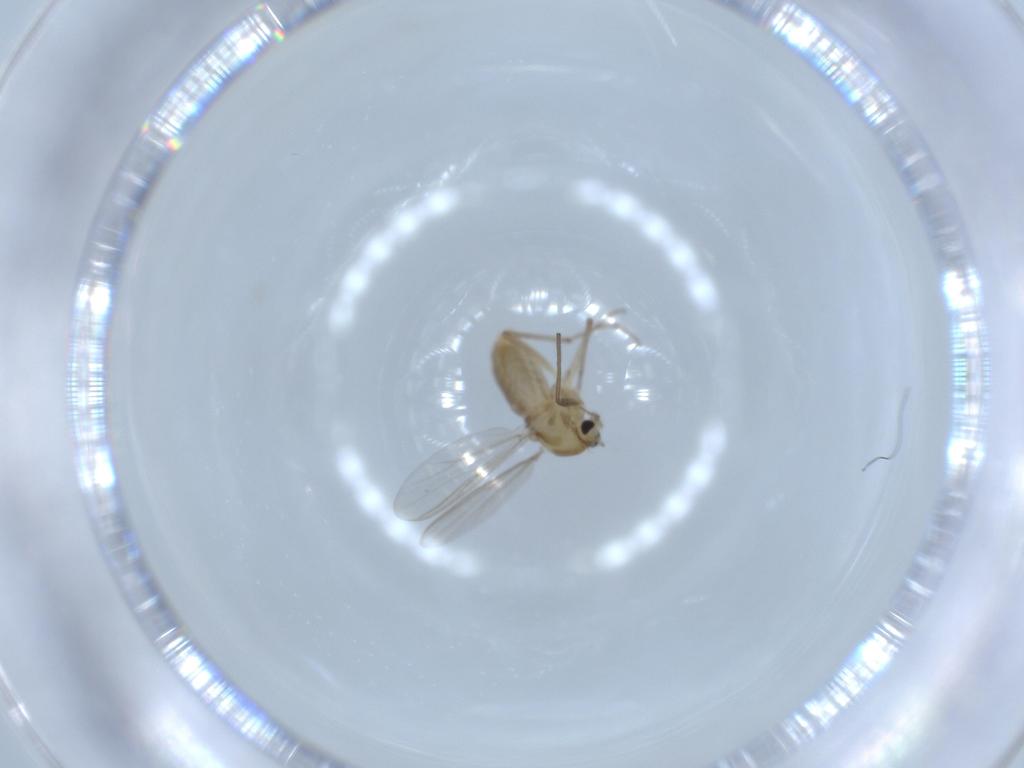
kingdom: Animalia
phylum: Arthropoda
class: Insecta
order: Diptera
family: Chironomidae
